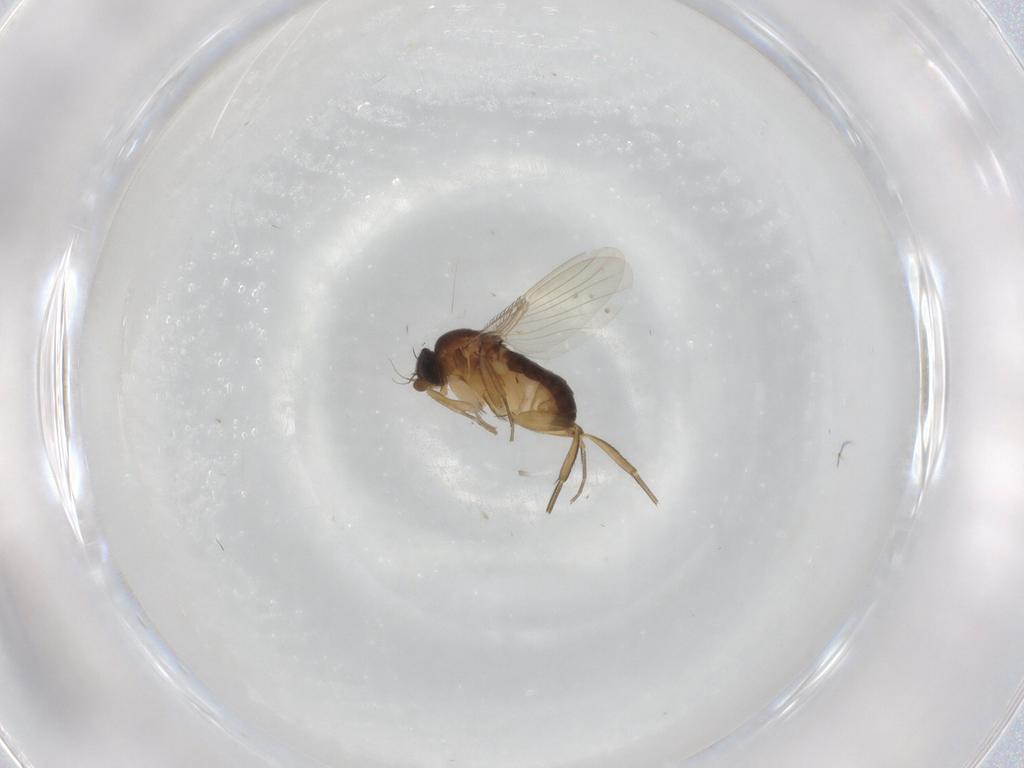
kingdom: Animalia
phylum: Arthropoda
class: Insecta
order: Diptera
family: Phoridae
